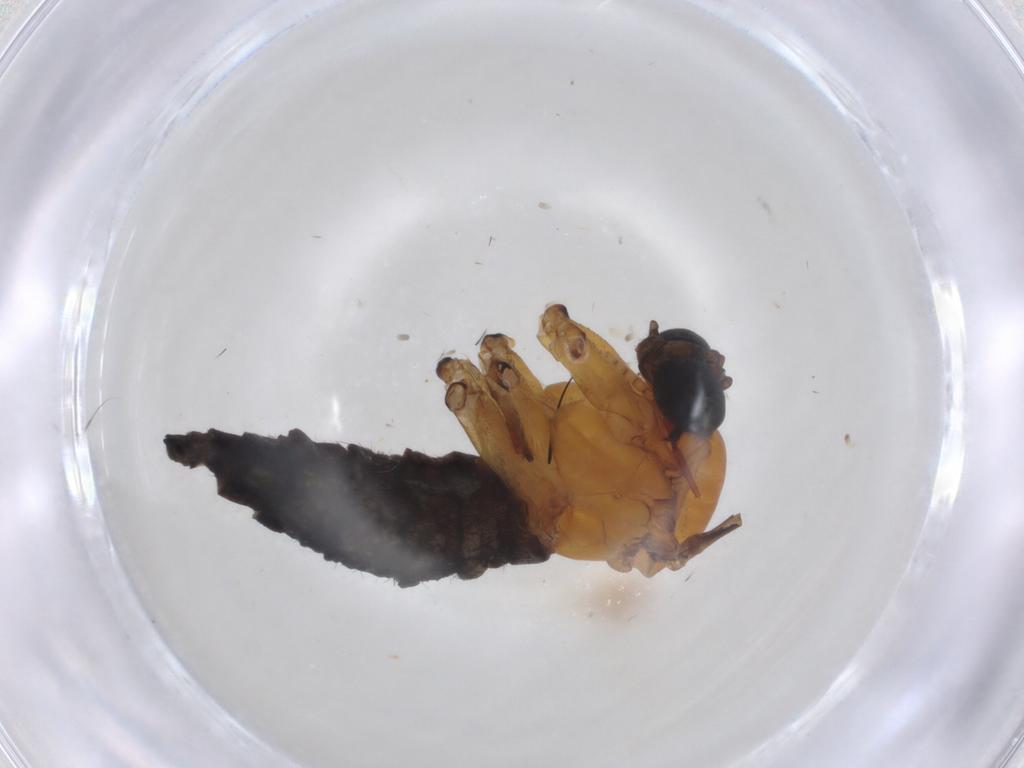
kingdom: Animalia
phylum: Arthropoda
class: Insecta
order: Diptera
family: Sciaridae
